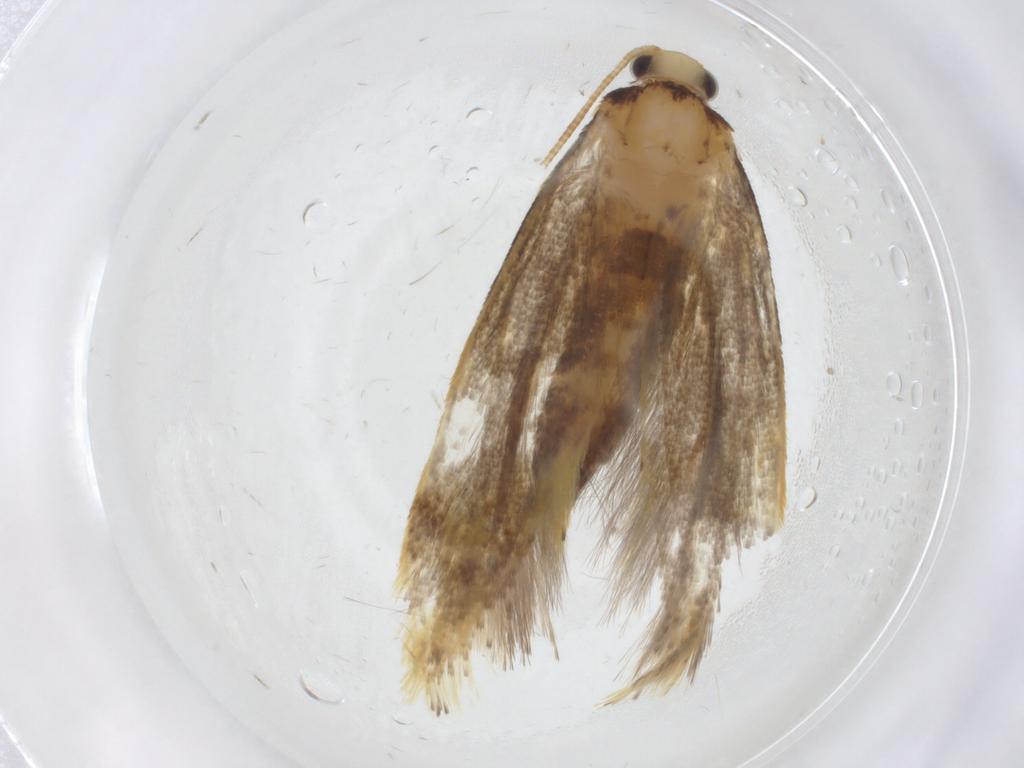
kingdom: Animalia
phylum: Arthropoda
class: Insecta
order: Lepidoptera
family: Tineidae
